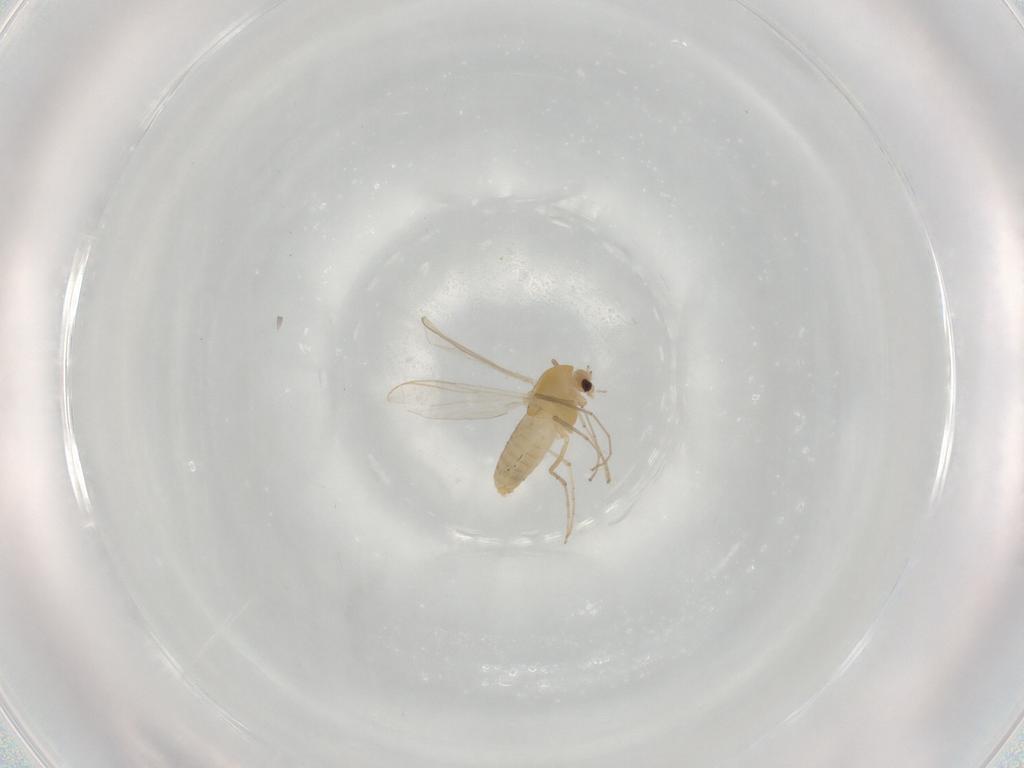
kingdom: Animalia
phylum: Arthropoda
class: Insecta
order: Diptera
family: Chironomidae
